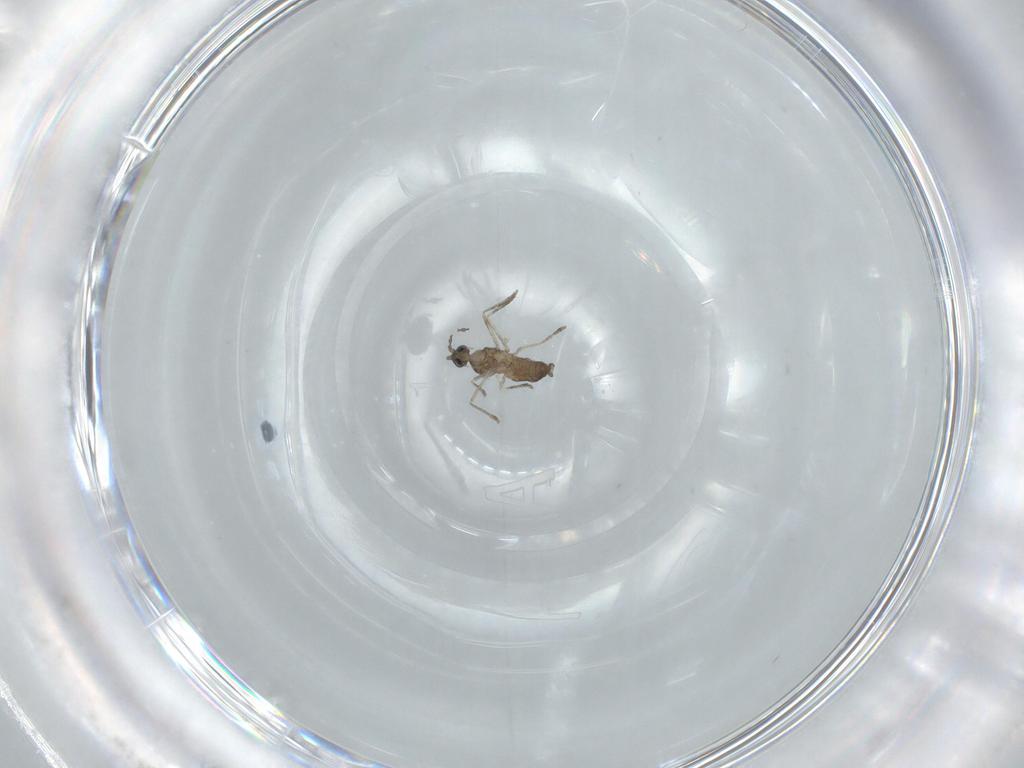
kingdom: Animalia
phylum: Arthropoda
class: Insecta
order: Diptera
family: Cecidomyiidae
